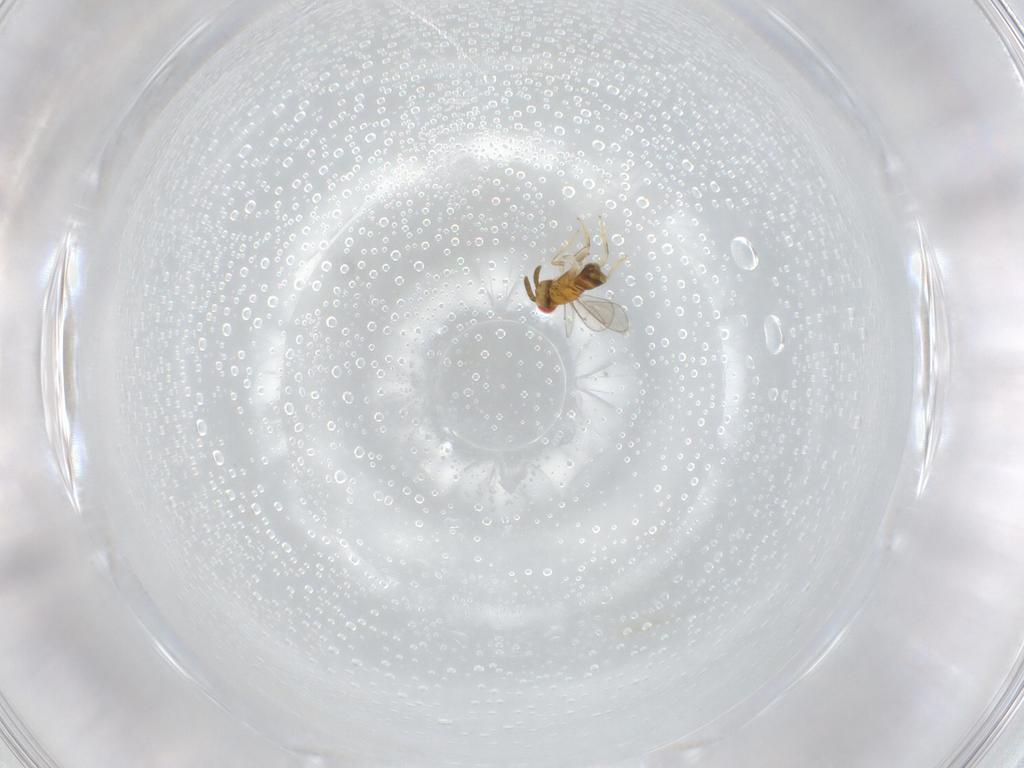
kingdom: Animalia
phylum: Arthropoda
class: Insecta
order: Hymenoptera
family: Aphelinidae
